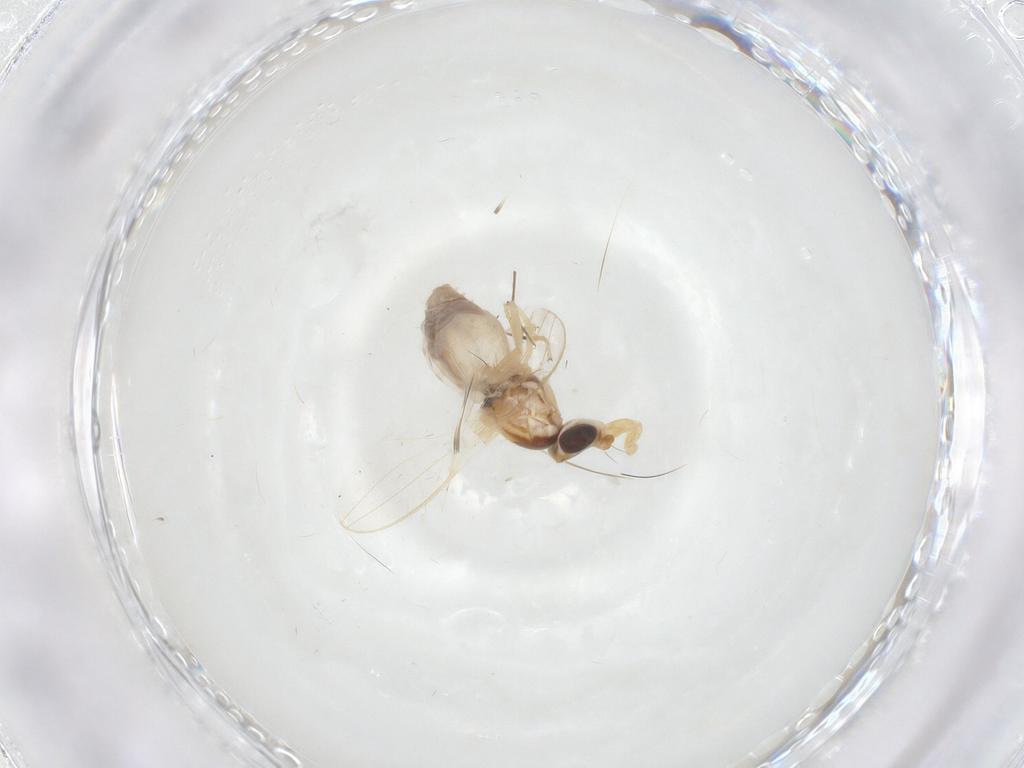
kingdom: Animalia
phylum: Arthropoda
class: Insecta
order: Diptera
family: Chloropidae
